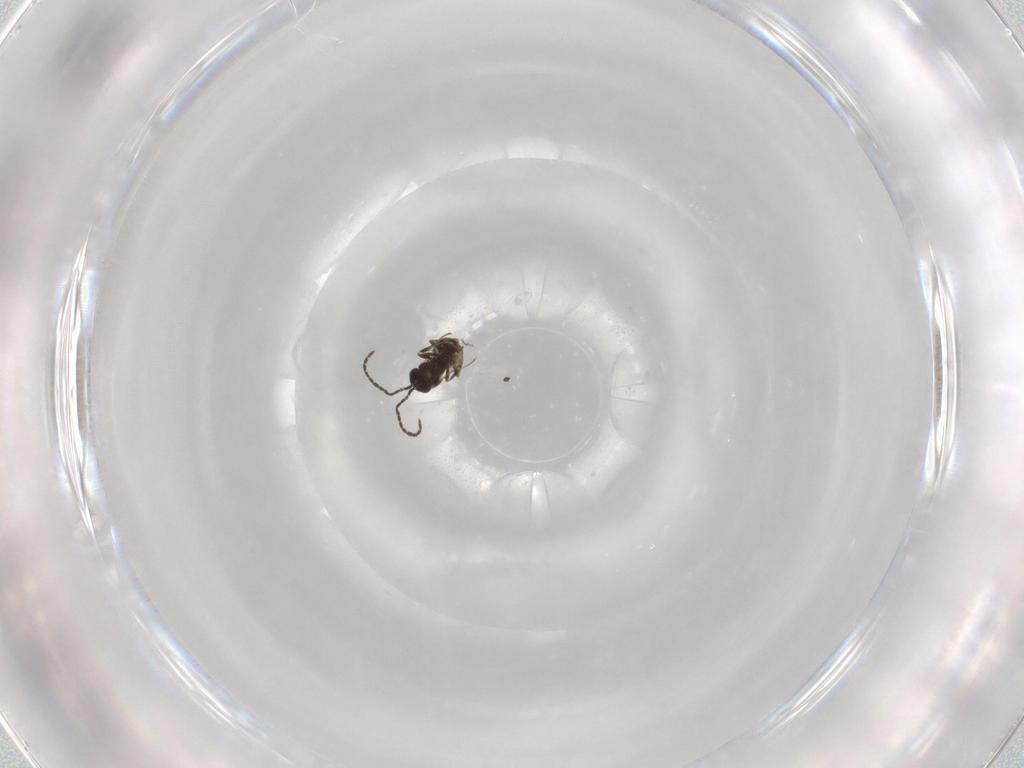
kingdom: Animalia
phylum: Arthropoda
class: Insecta
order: Hymenoptera
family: Scelionidae
